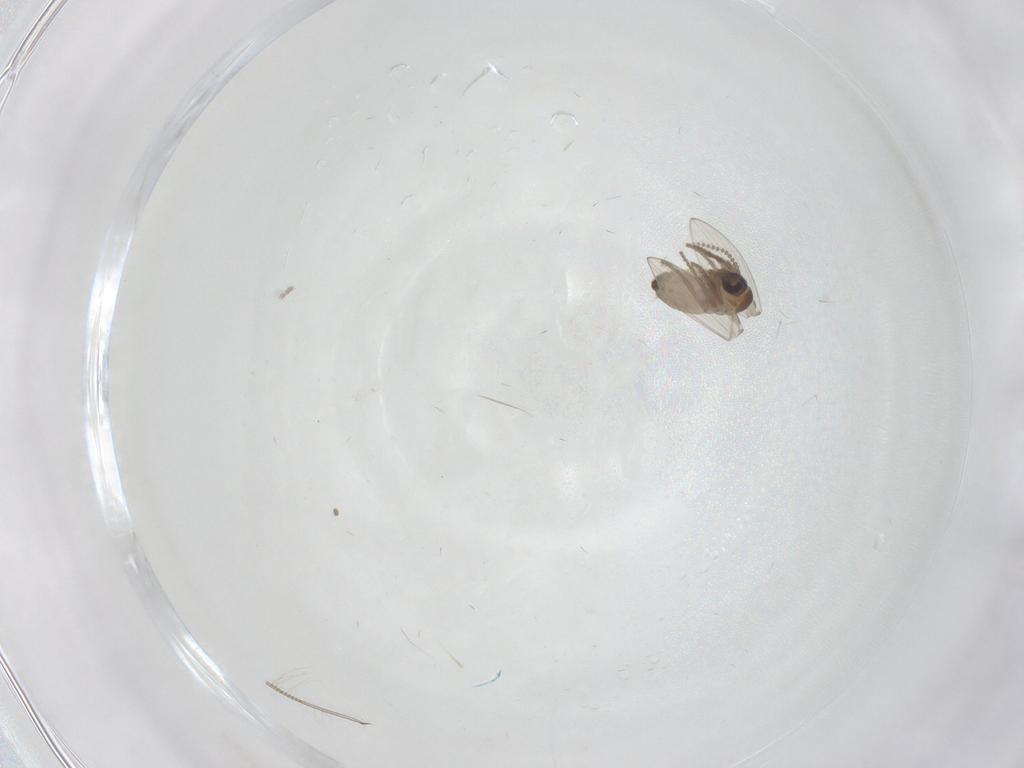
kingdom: Animalia
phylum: Arthropoda
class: Insecta
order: Diptera
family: Psychodidae
